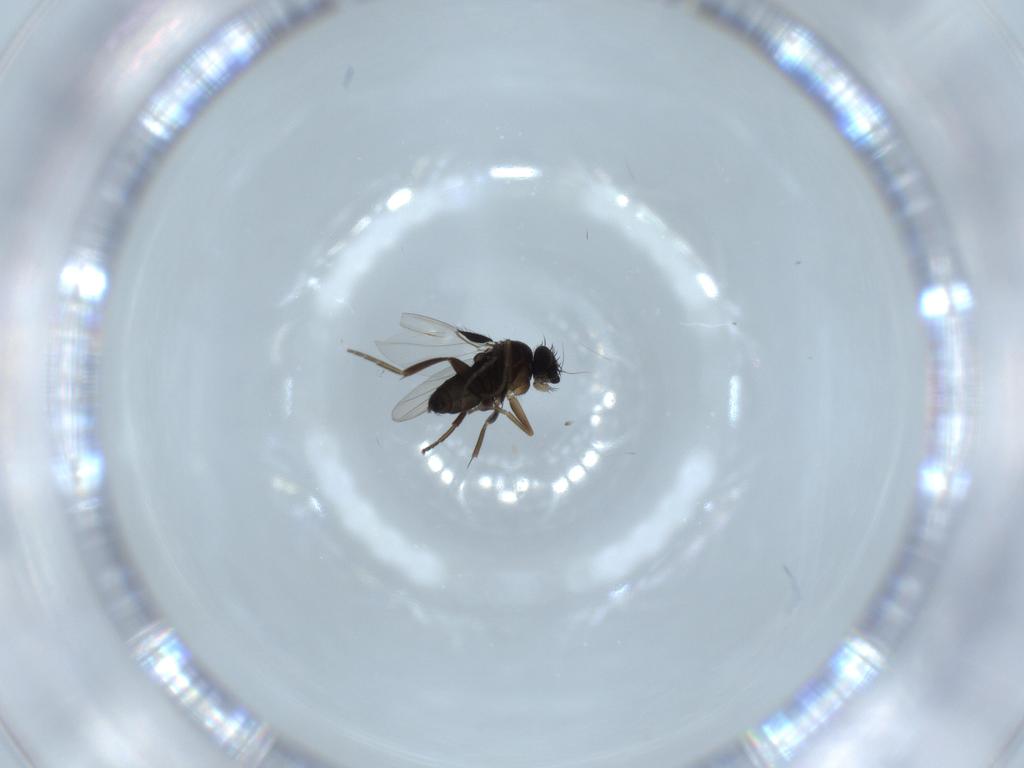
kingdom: Animalia
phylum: Arthropoda
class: Insecta
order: Diptera
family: Phoridae
